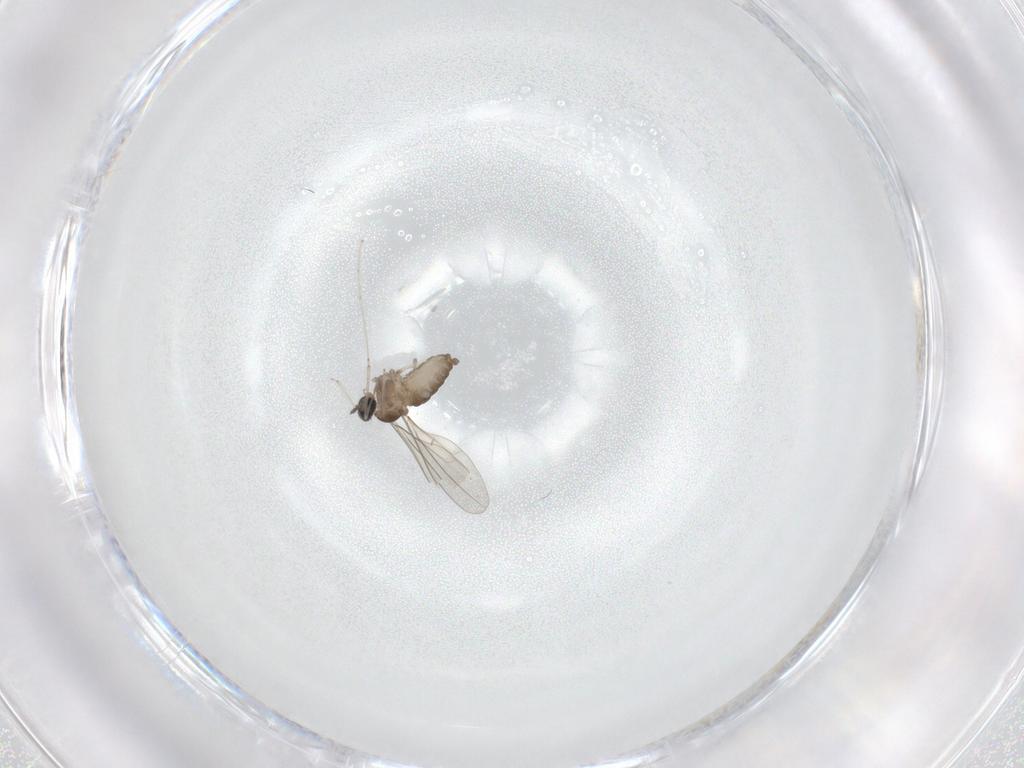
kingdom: Animalia
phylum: Arthropoda
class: Insecta
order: Diptera
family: Cecidomyiidae
